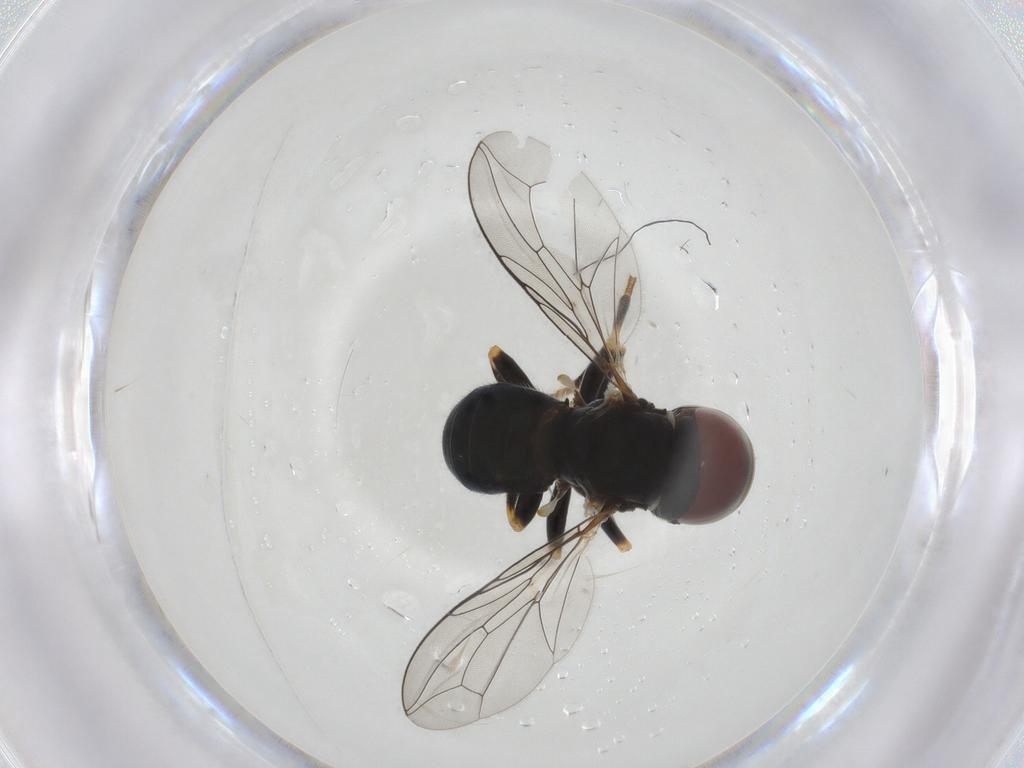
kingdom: Animalia
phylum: Arthropoda
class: Insecta
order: Diptera
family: Pipunculidae
